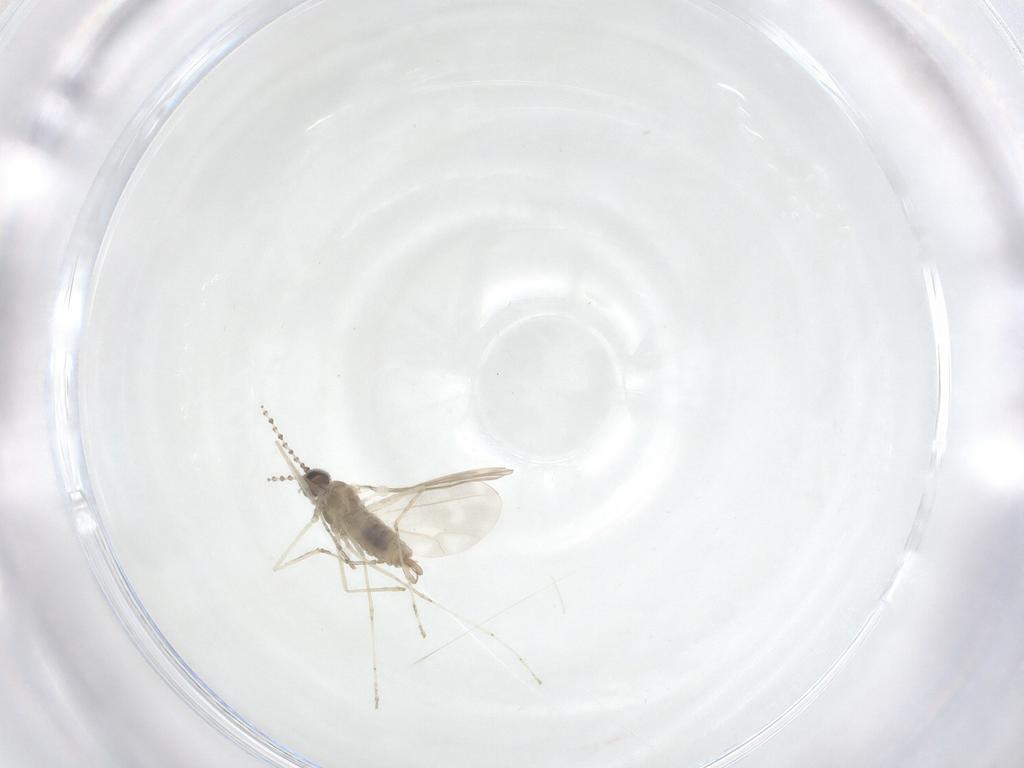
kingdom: Animalia
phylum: Arthropoda
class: Insecta
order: Diptera
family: Cecidomyiidae
